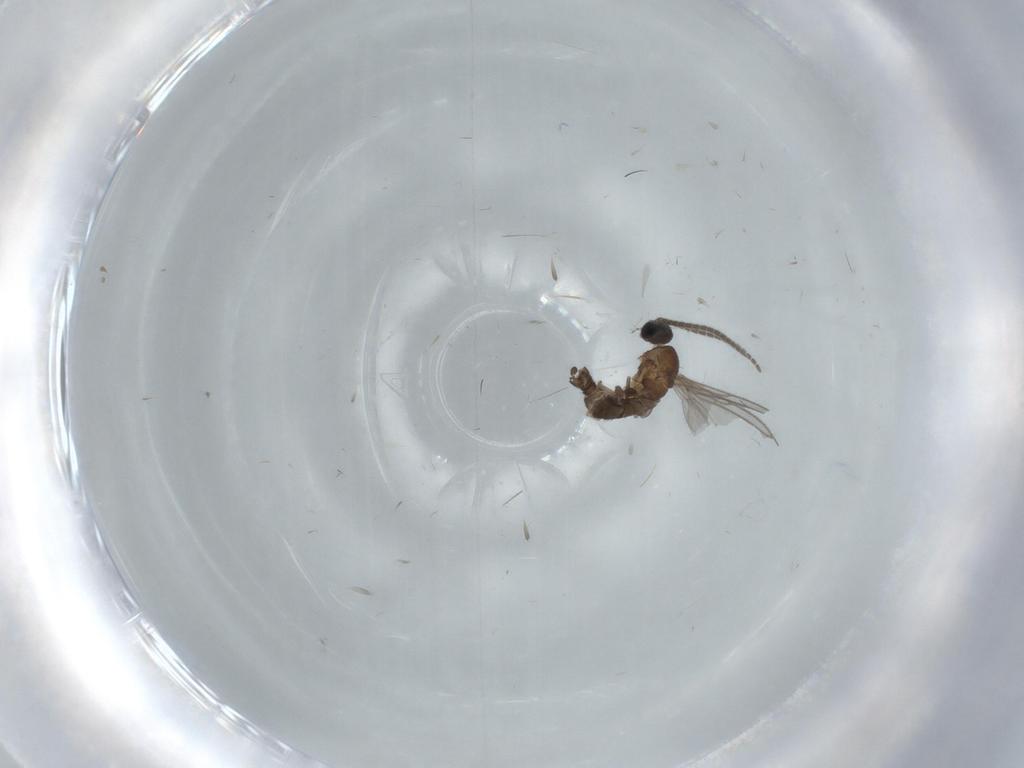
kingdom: Animalia
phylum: Arthropoda
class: Insecta
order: Diptera
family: Sciaridae
